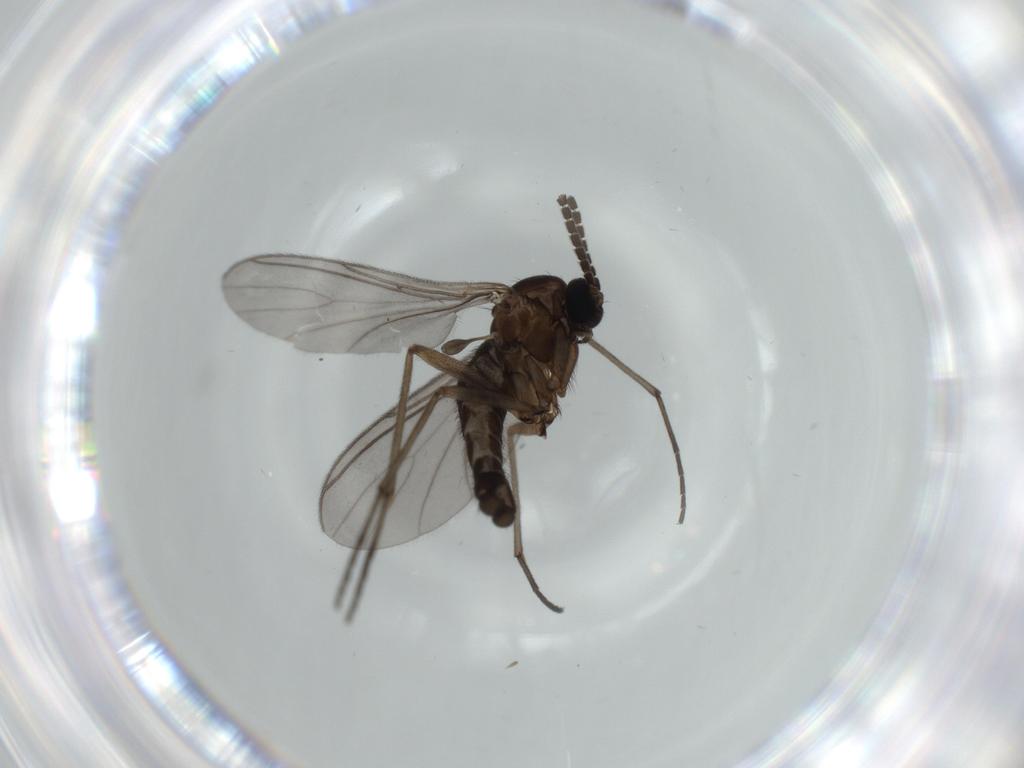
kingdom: Animalia
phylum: Arthropoda
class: Insecta
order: Diptera
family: Sciaridae
